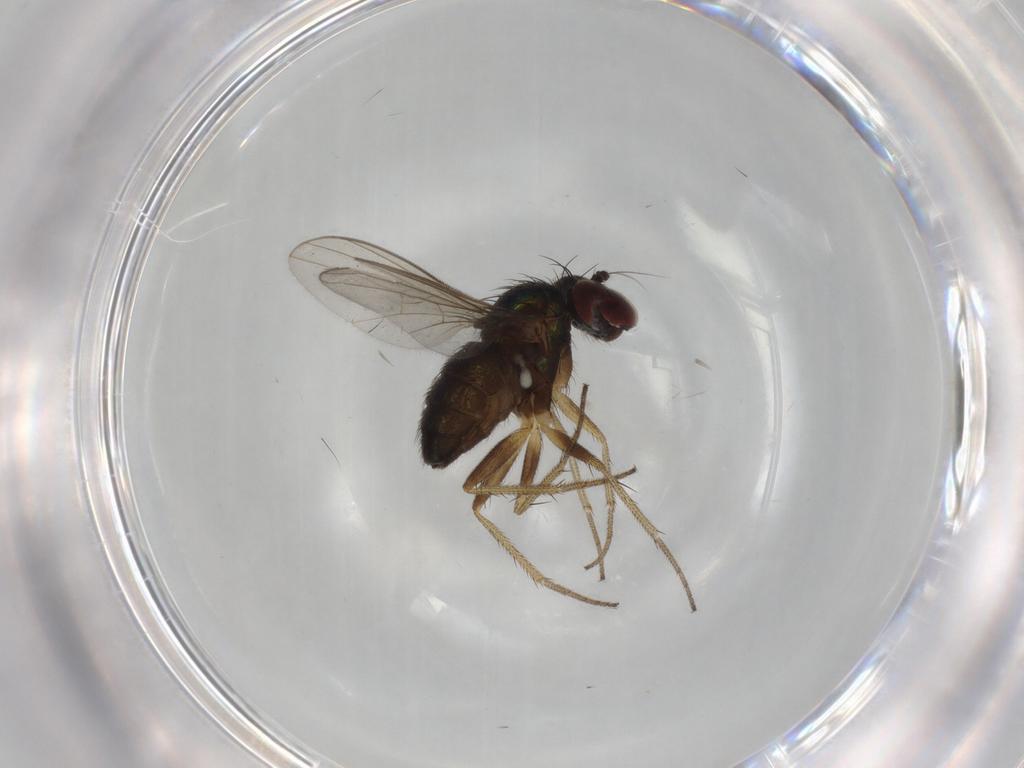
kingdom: Animalia
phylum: Arthropoda
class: Insecta
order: Diptera
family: Dolichopodidae
